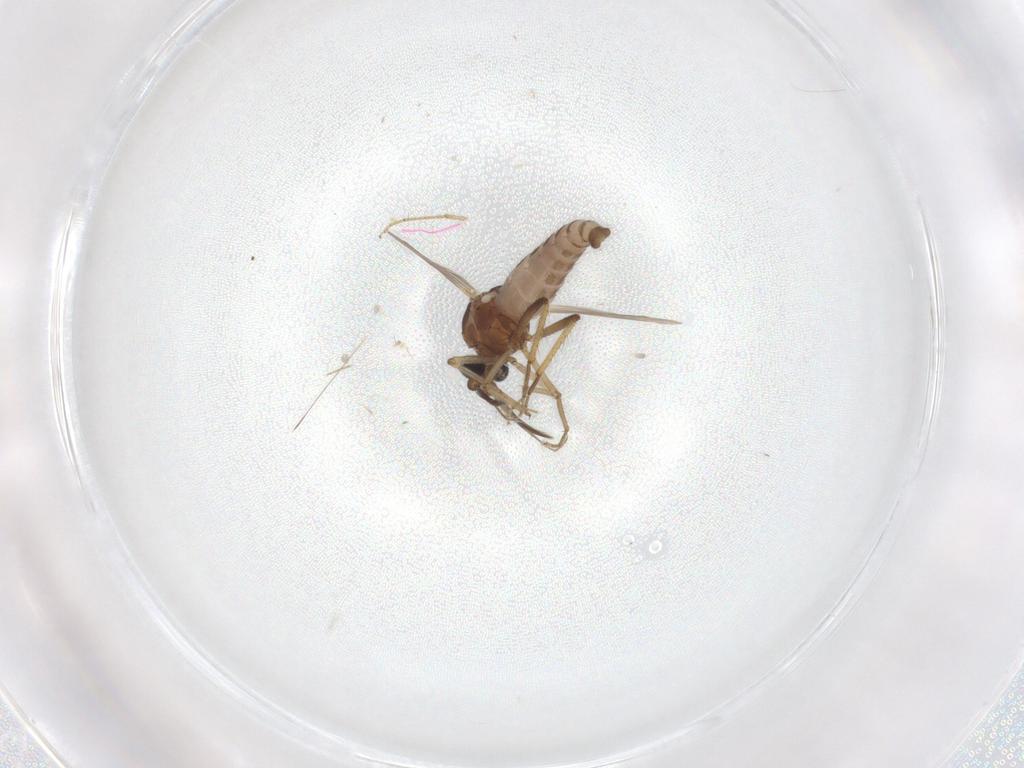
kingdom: Animalia
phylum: Arthropoda
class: Insecta
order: Diptera
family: Ceratopogonidae
